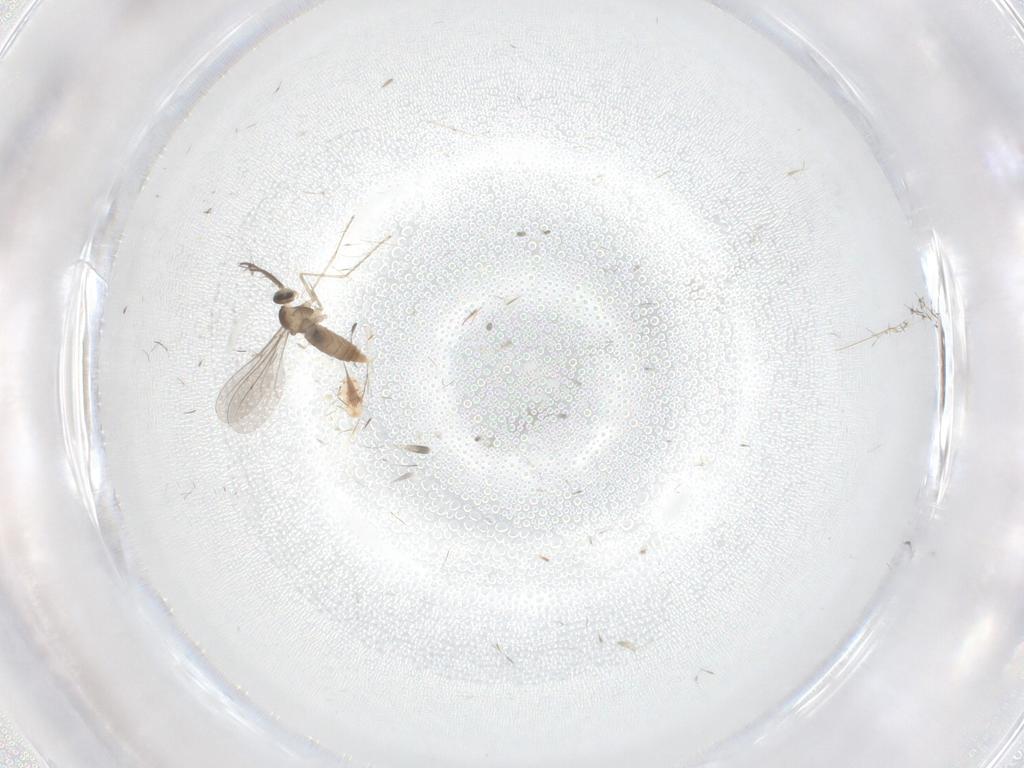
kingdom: Animalia
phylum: Arthropoda
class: Insecta
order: Diptera
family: Cecidomyiidae
